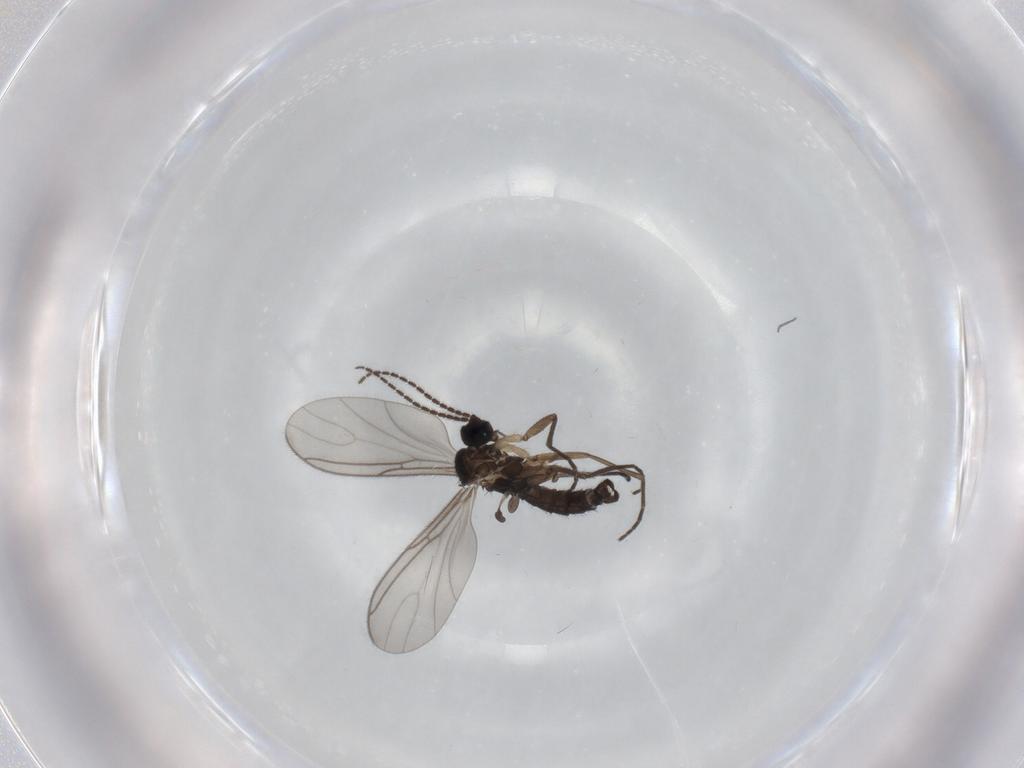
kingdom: Animalia
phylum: Arthropoda
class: Insecta
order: Diptera
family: Sciaridae
